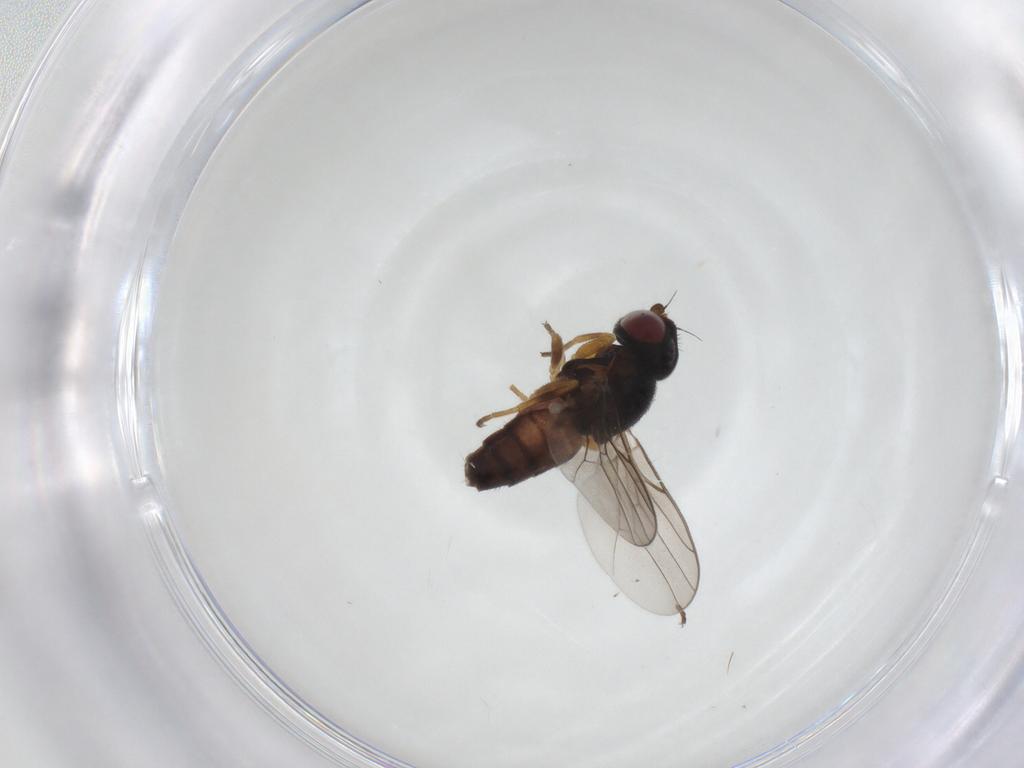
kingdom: Animalia
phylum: Arthropoda
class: Insecta
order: Diptera
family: Chloropidae
